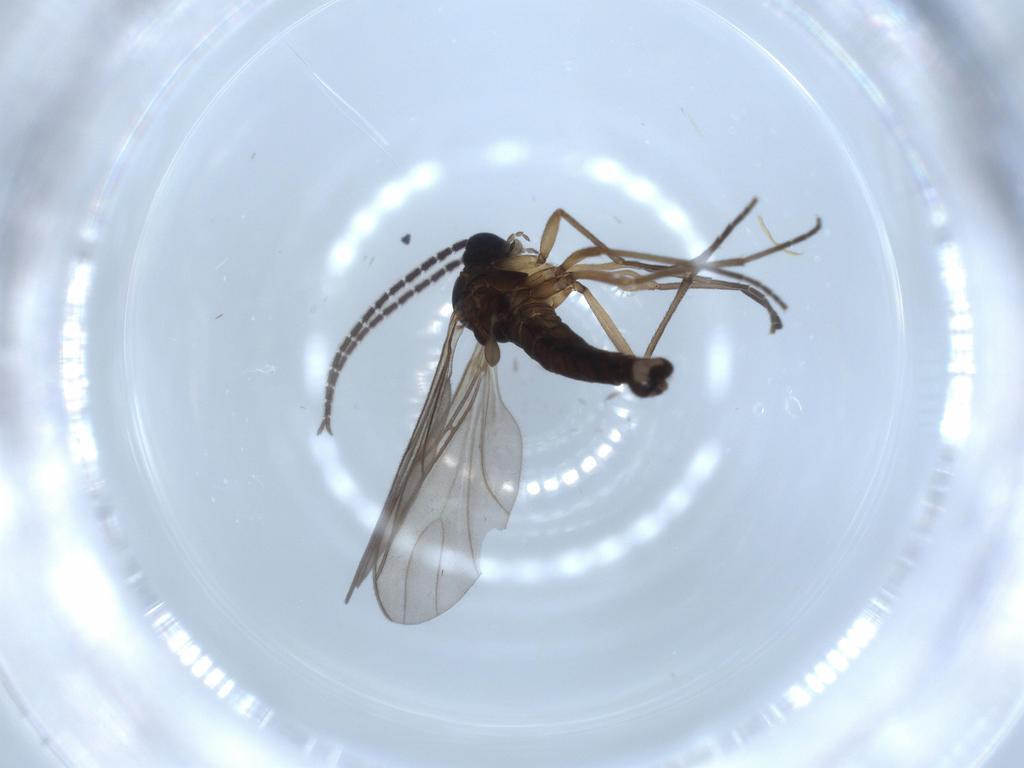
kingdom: Animalia
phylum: Arthropoda
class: Insecta
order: Diptera
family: Sciaridae
